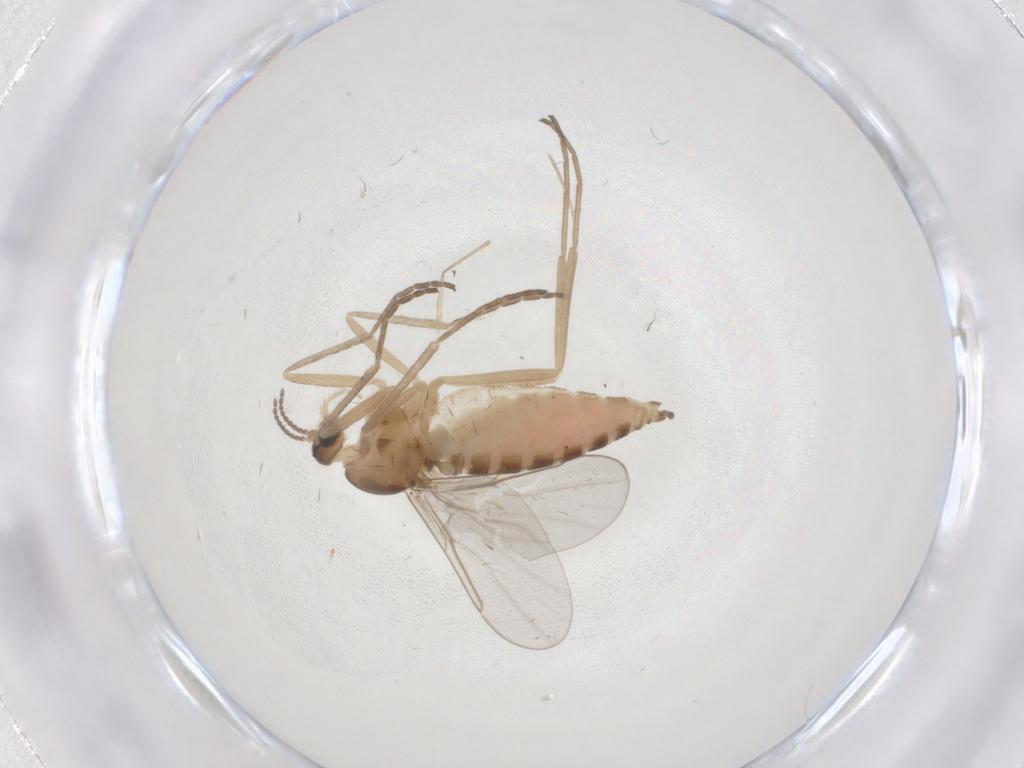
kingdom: Animalia
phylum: Arthropoda
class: Insecta
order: Diptera
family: Cecidomyiidae
